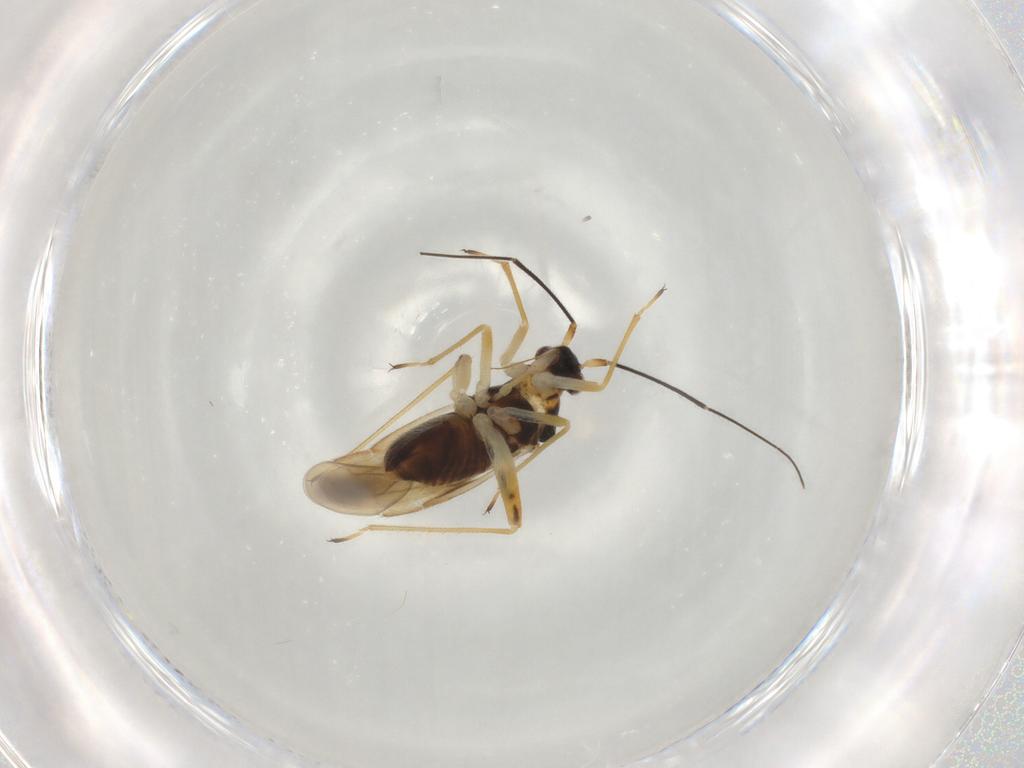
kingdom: Animalia
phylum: Arthropoda
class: Insecta
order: Hemiptera
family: Miridae
